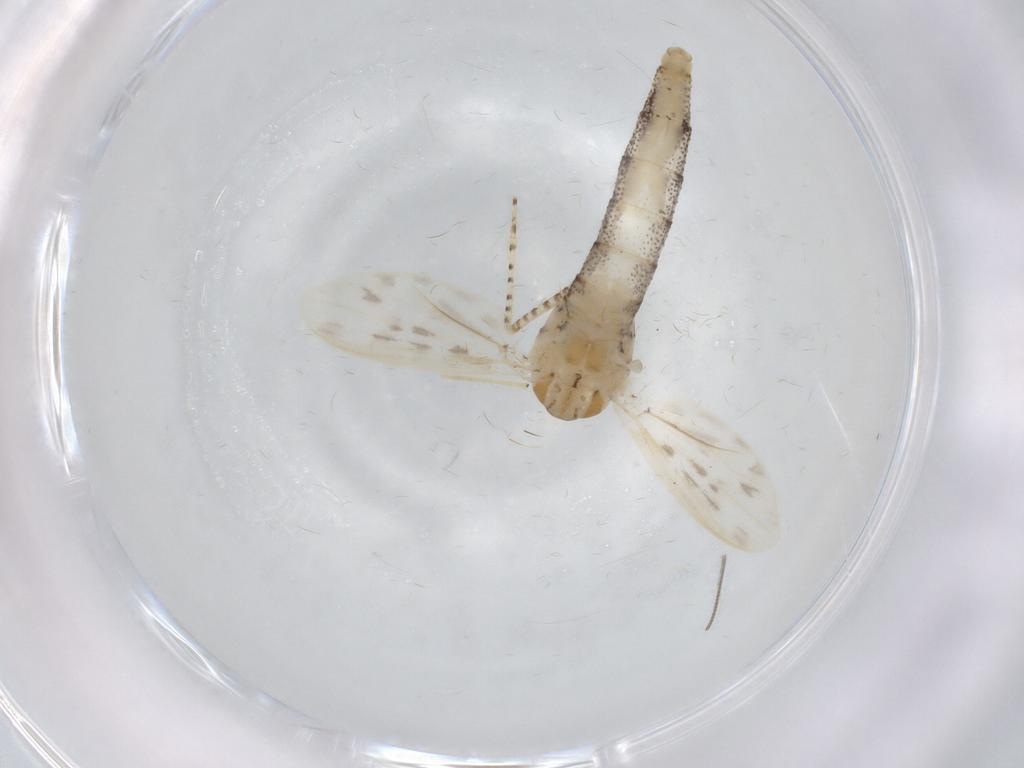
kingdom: Animalia
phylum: Arthropoda
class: Insecta
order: Diptera
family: Chaoboridae
